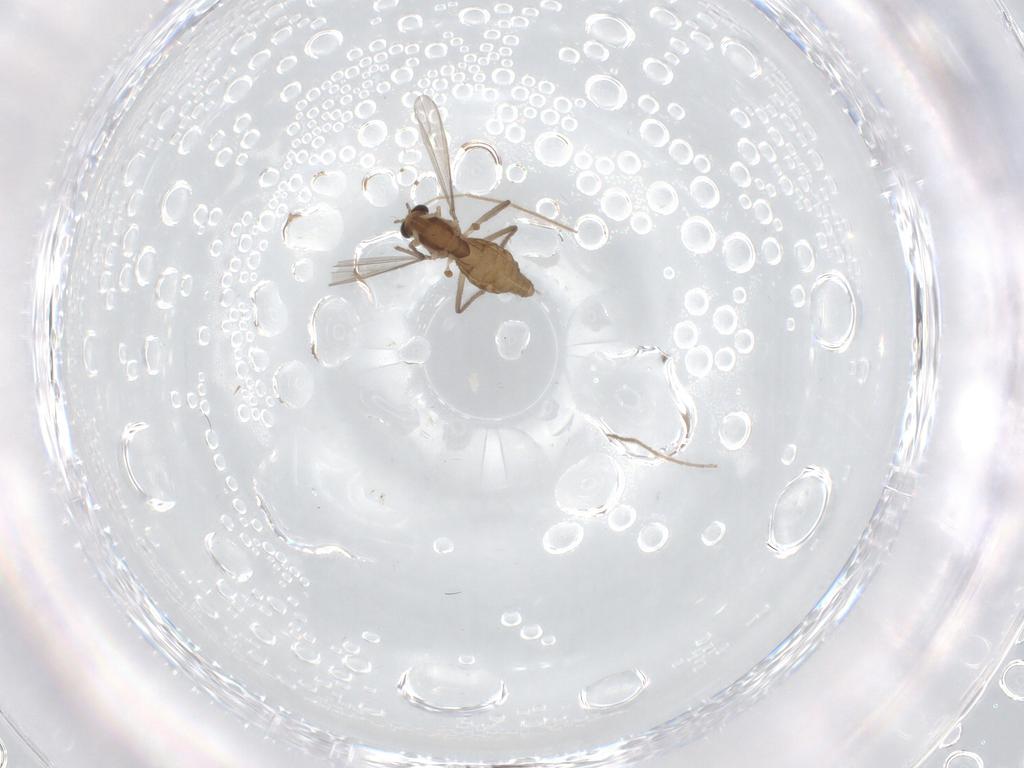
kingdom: Animalia
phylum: Arthropoda
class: Insecta
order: Diptera
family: Chironomidae
